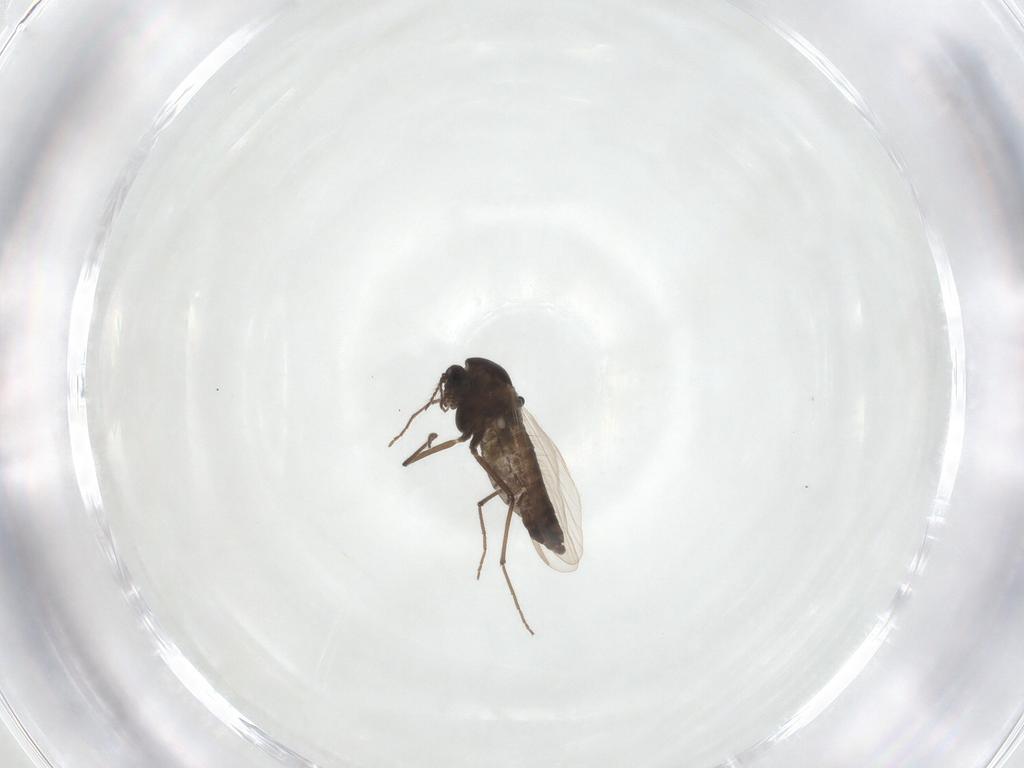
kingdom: Animalia
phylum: Arthropoda
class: Insecta
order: Diptera
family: Chironomidae
